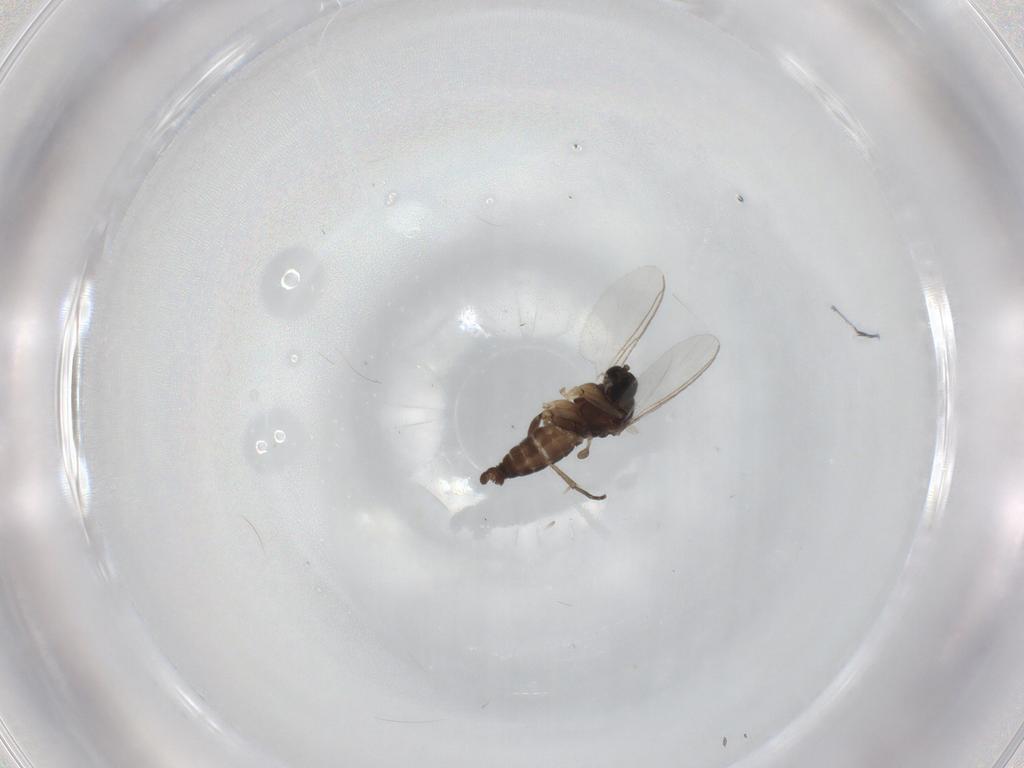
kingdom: Animalia
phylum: Arthropoda
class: Insecta
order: Diptera
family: Sciaridae
